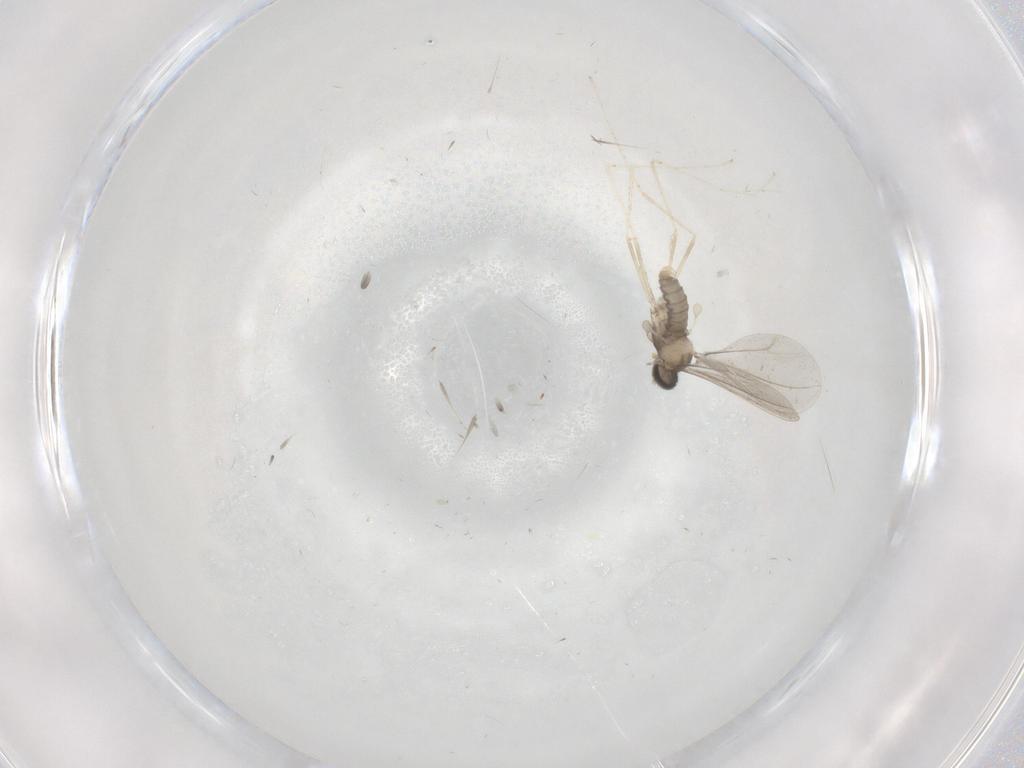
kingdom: Animalia
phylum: Arthropoda
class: Insecta
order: Diptera
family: Cecidomyiidae
